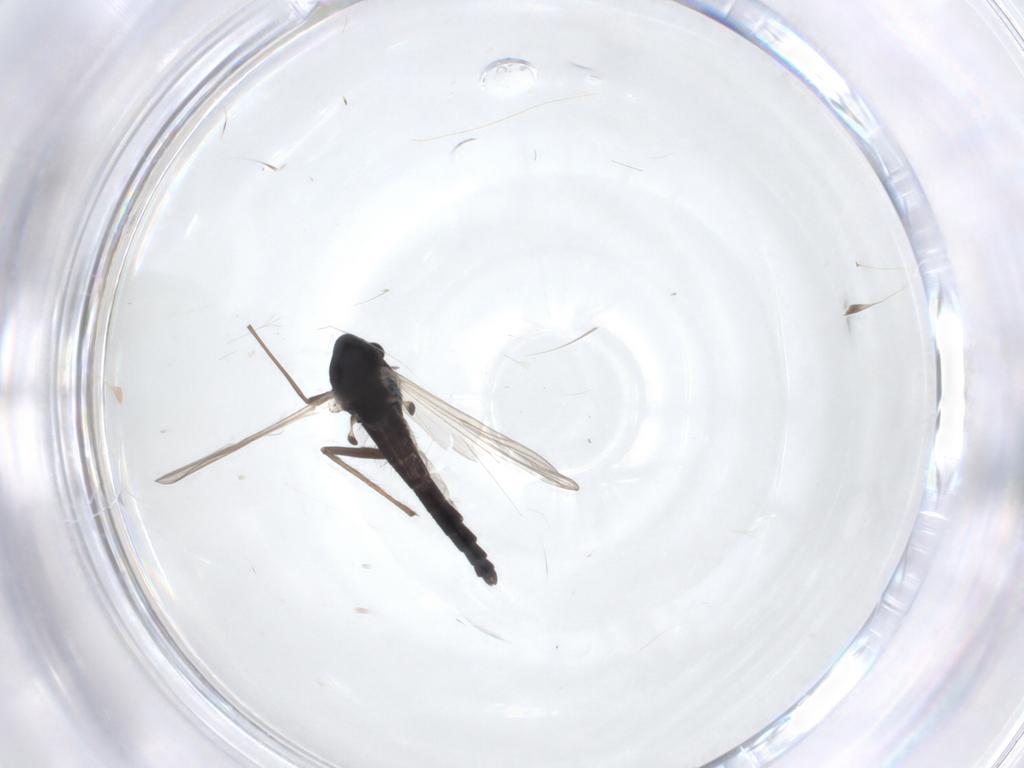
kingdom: Animalia
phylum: Arthropoda
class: Insecta
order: Diptera
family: Chironomidae
